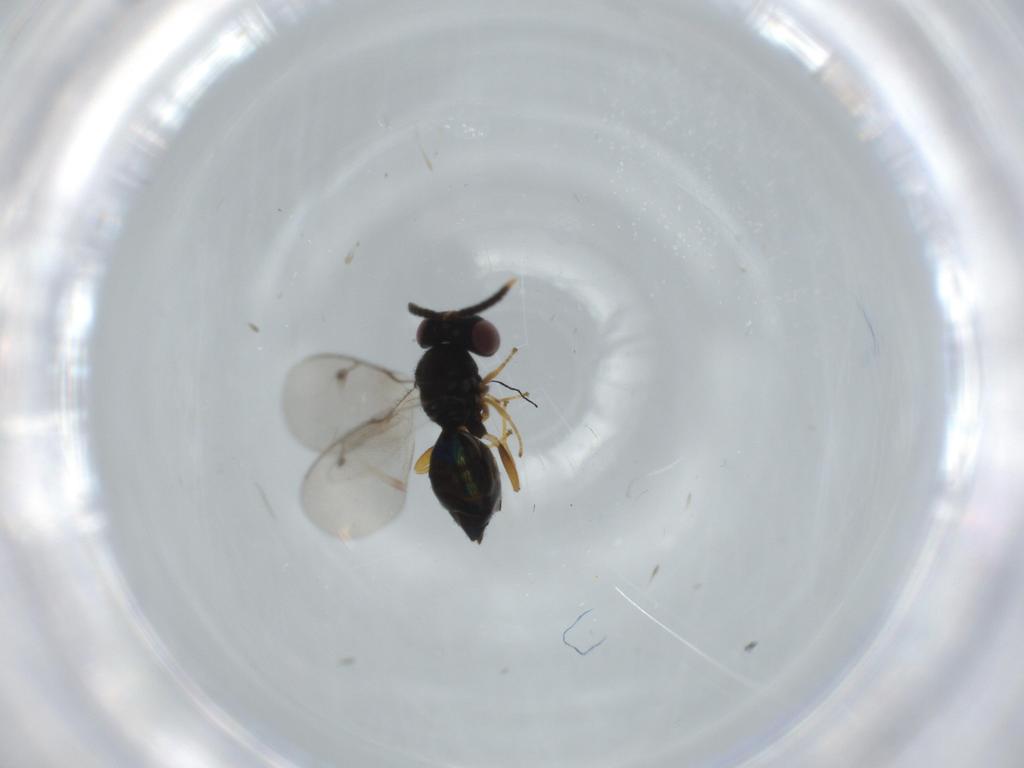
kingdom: Animalia
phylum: Arthropoda
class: Insecta
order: Hymenoptera
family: Pirenidae
